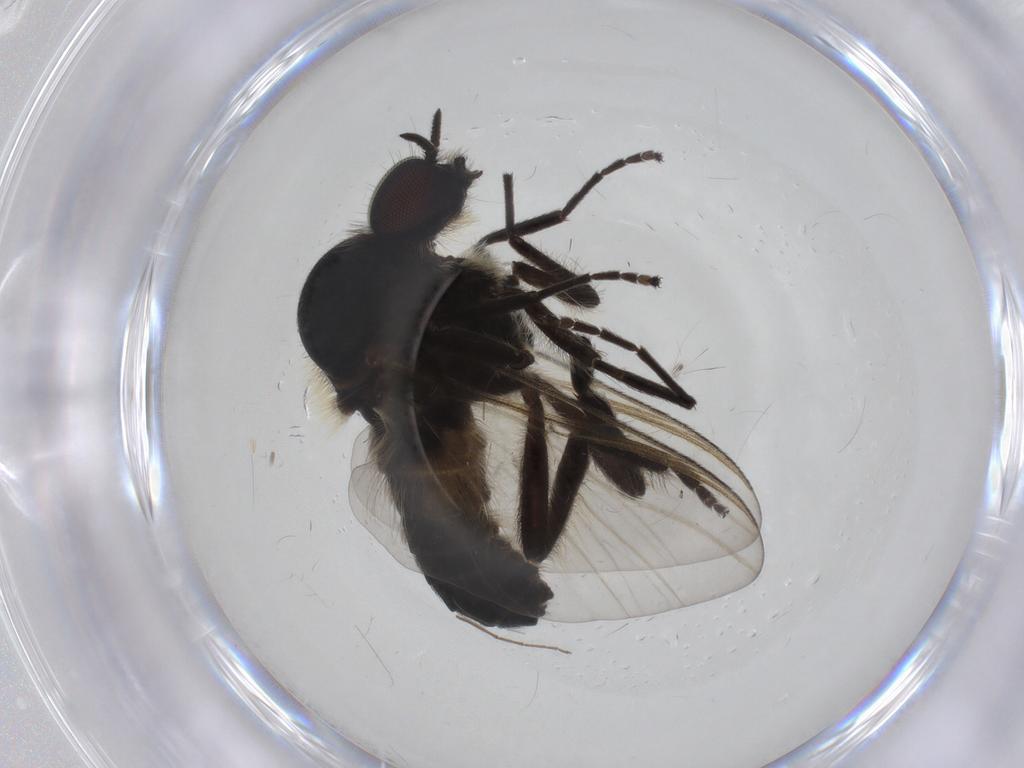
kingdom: Animalia
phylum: Arthropoda
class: Insecta
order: Diptera
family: Simuliidae
